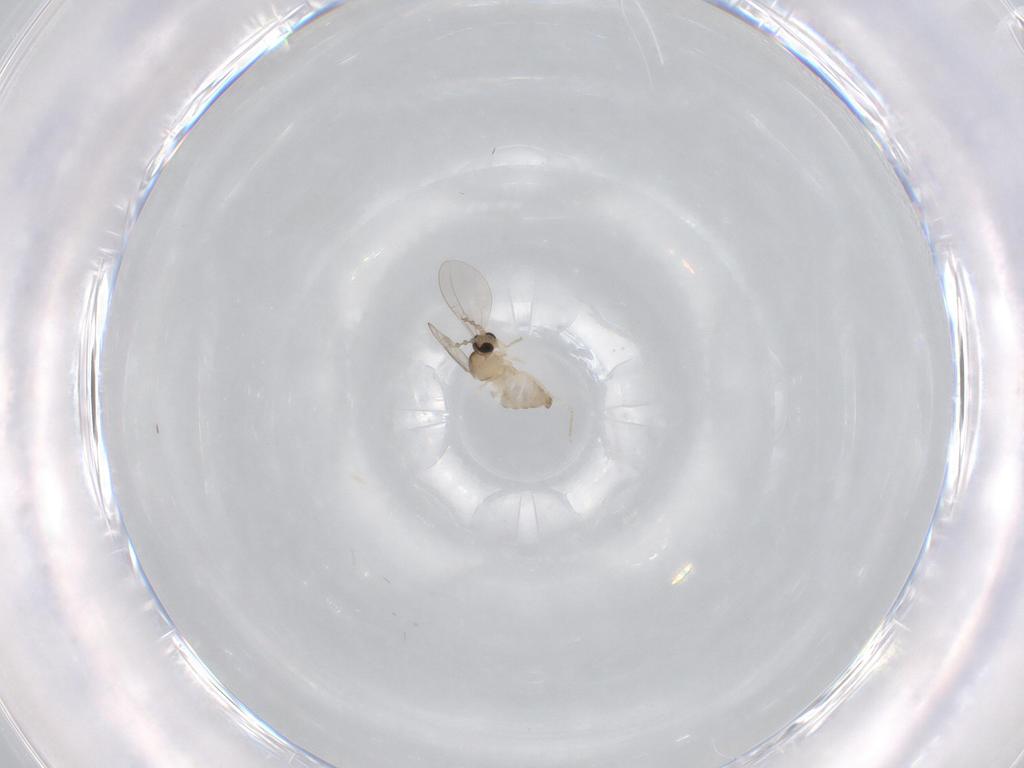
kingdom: Animalia
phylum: Arthropoda
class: Insecta
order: Diptera
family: Cecidomyiidae
